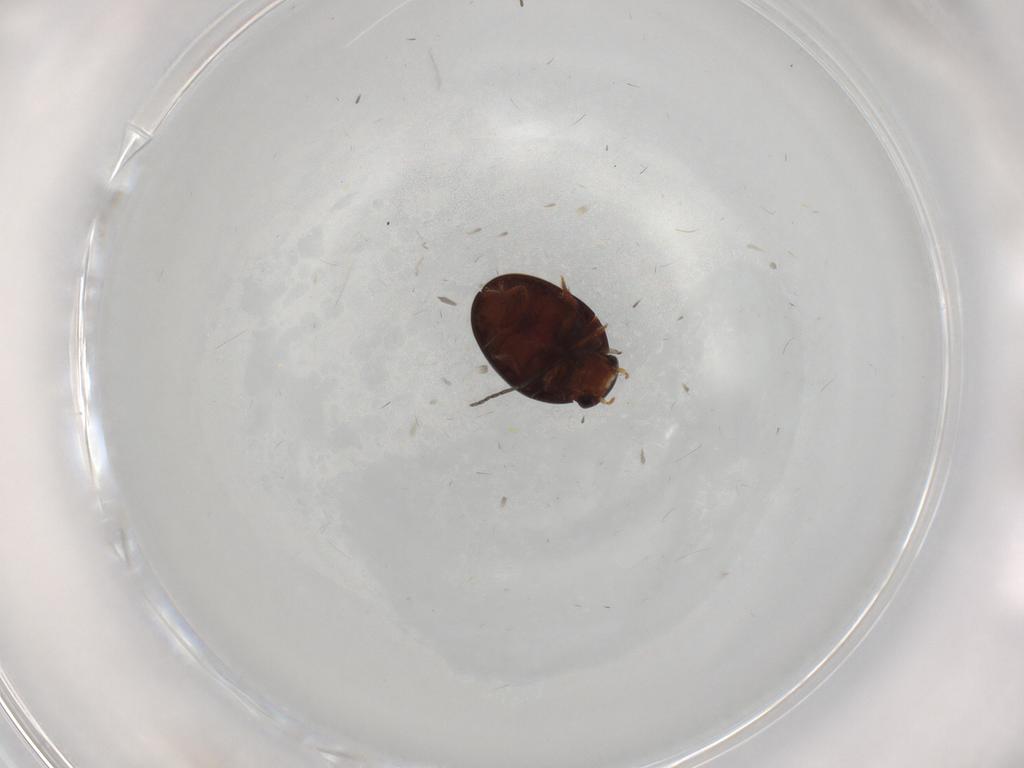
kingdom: Animalia
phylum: Arthropoda
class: Insecta
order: Coleoptera
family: Hydrophilidae
